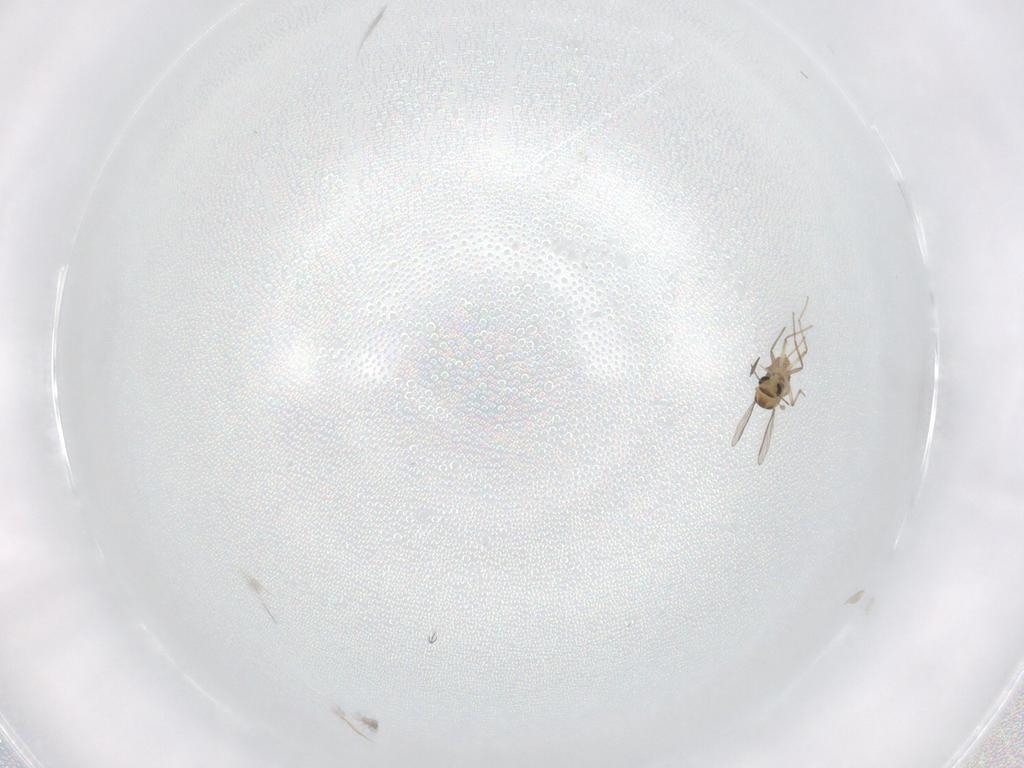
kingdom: Animalia
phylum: Arthropoda
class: Insecta
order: Diptera
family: Chironomidae
